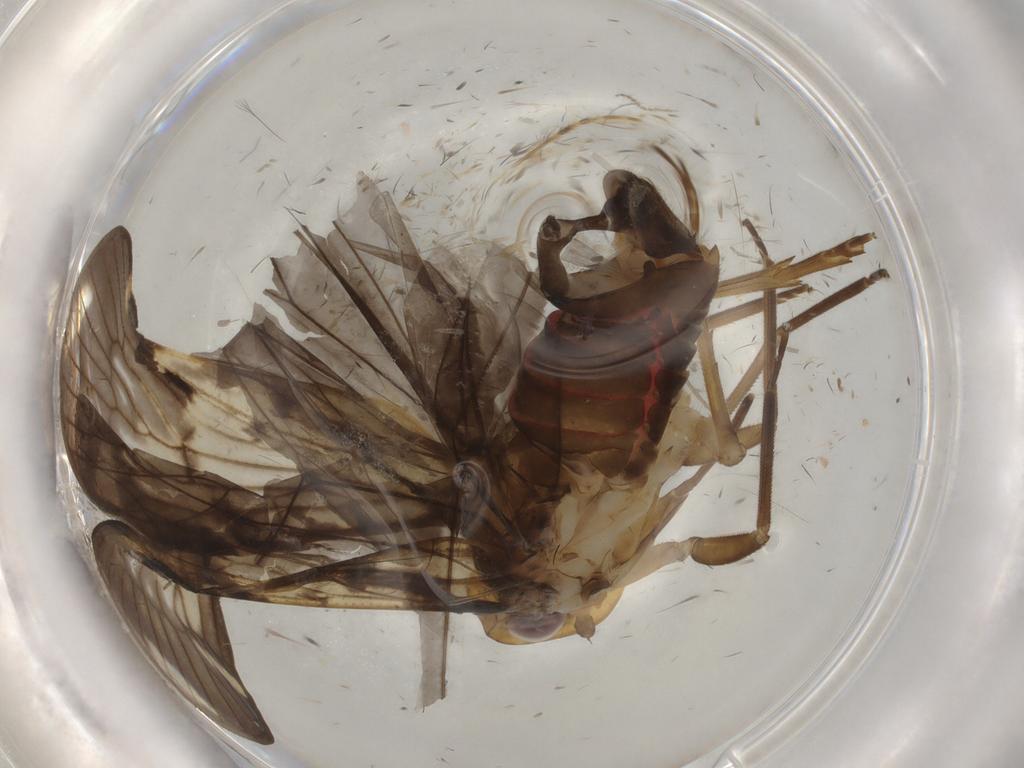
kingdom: Animalia
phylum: Arthropoda
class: Insecta
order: Hemiptera
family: Cixiidae
